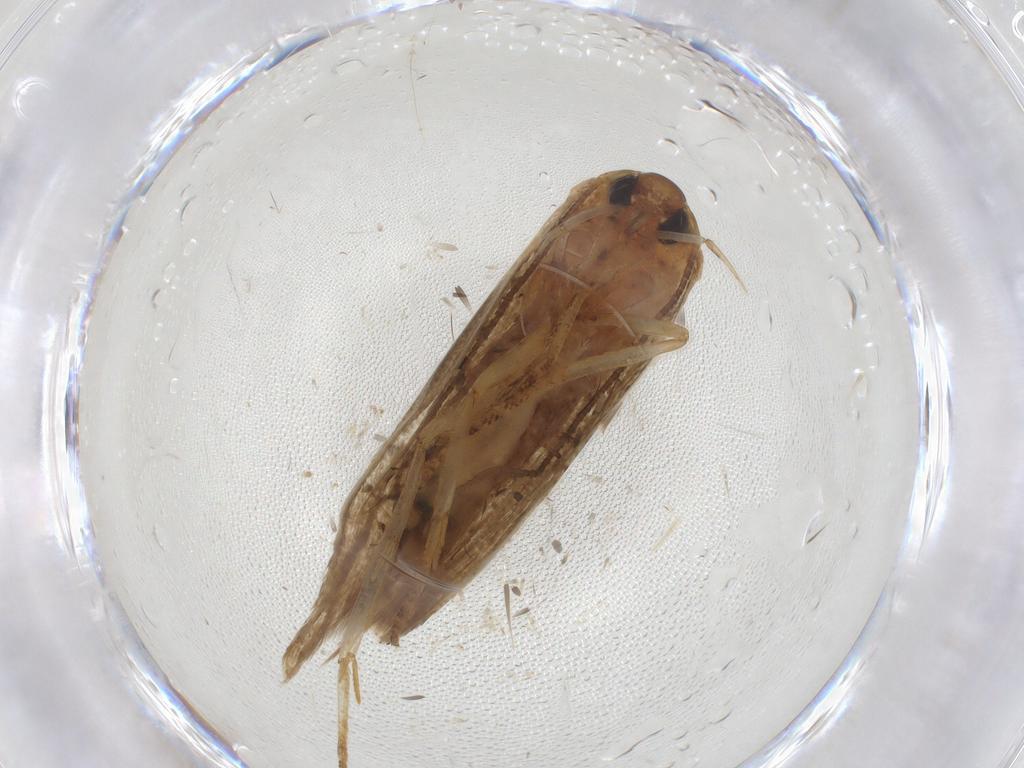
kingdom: Animalia
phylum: Arthropoda
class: Insecta
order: Lepidoptera
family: Blastobasidae
